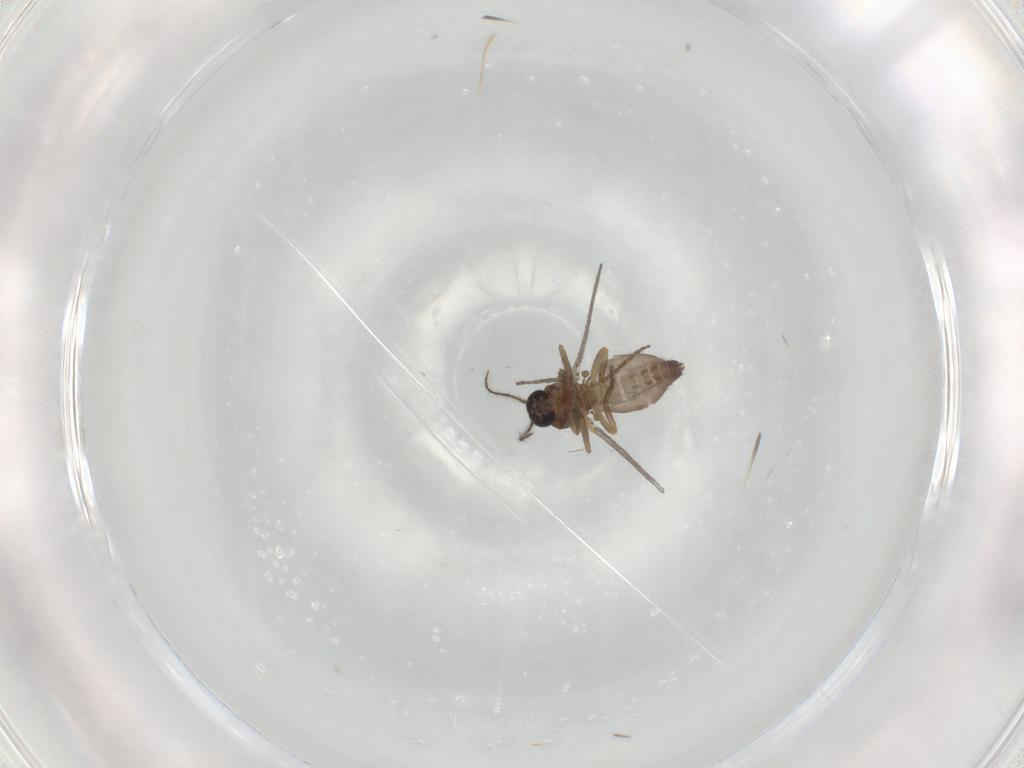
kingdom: Animalia
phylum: Arthropoda
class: Insecta
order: Diptera
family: Ceratopogonidae
